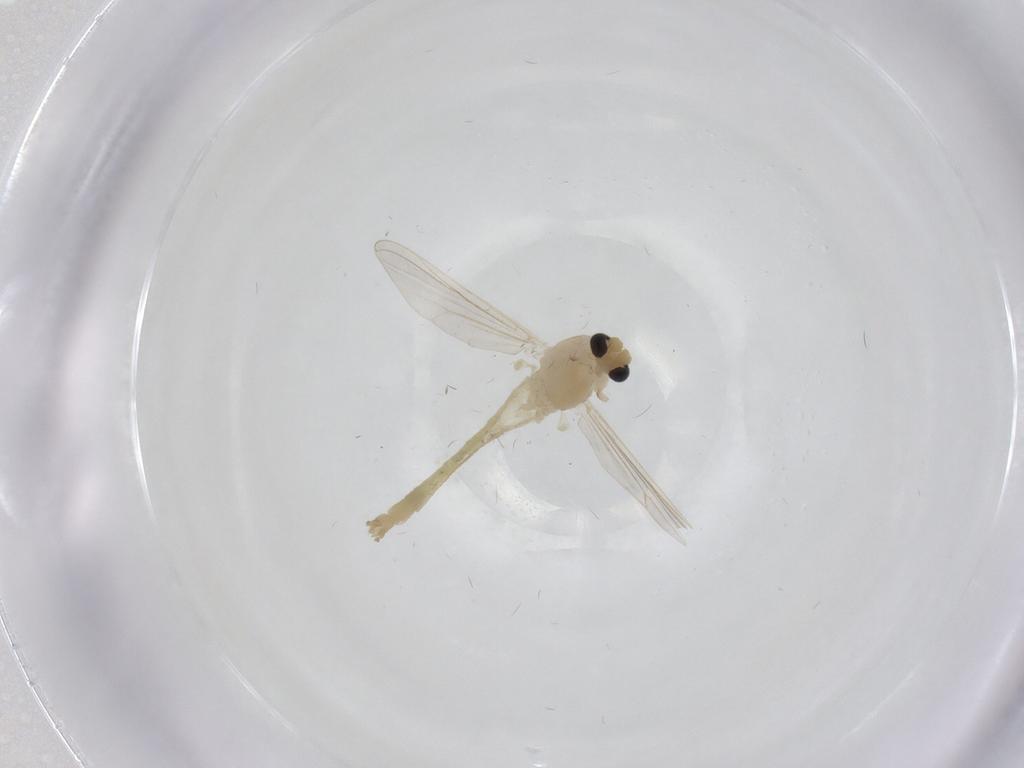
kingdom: Animalia
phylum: Arthropoda
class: Insecta
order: Diptera
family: Chironomidae
